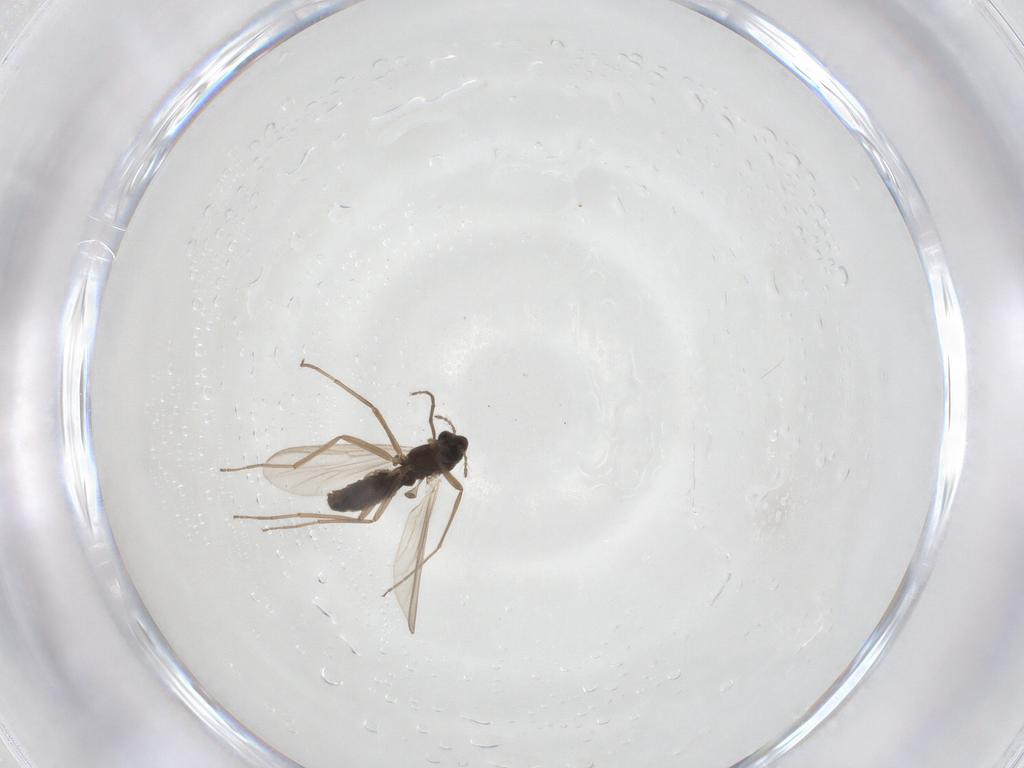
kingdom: Animalia
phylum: Arthropoda
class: Insecta
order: Diptera
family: Chironomidae
